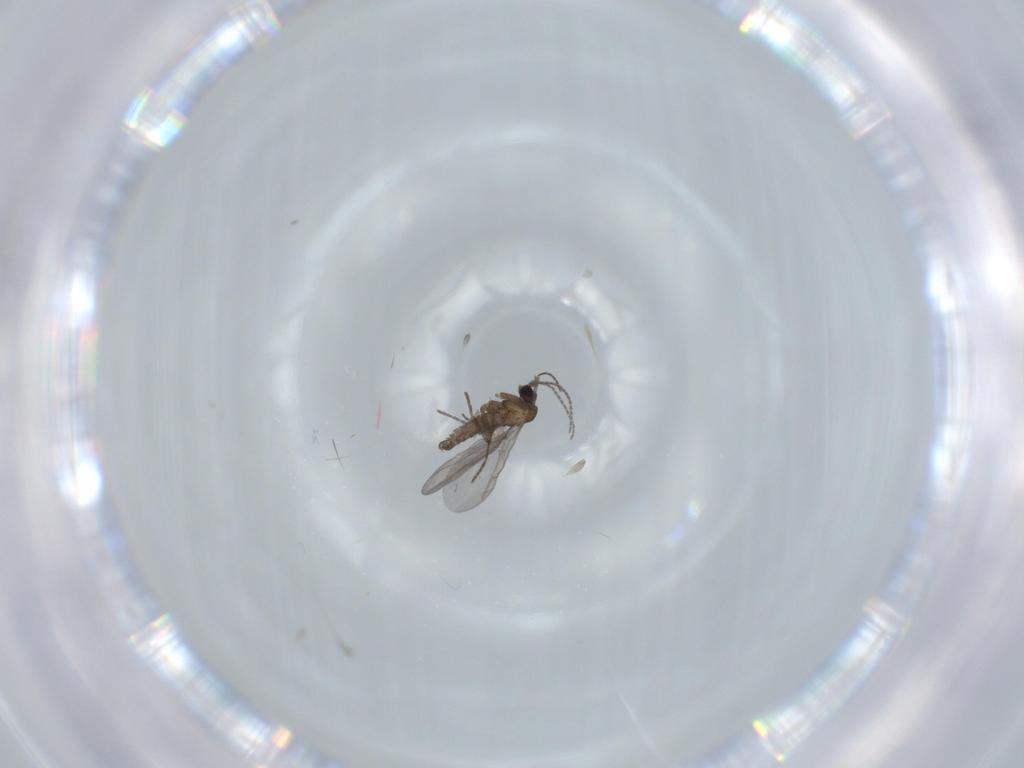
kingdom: Animalia
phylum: Arthropoda
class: Insecta
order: Diptera
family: Sciaridae
